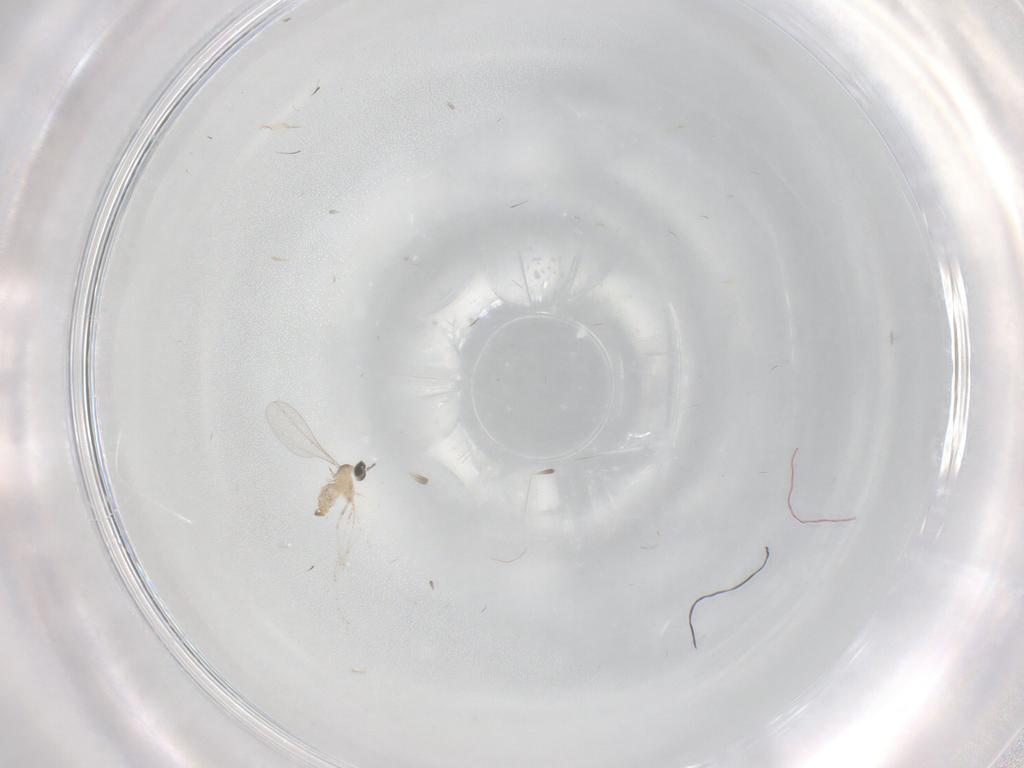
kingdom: Animalia
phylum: Arthropoda
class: Insecta
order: Diptera
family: Cecidomyiidae
